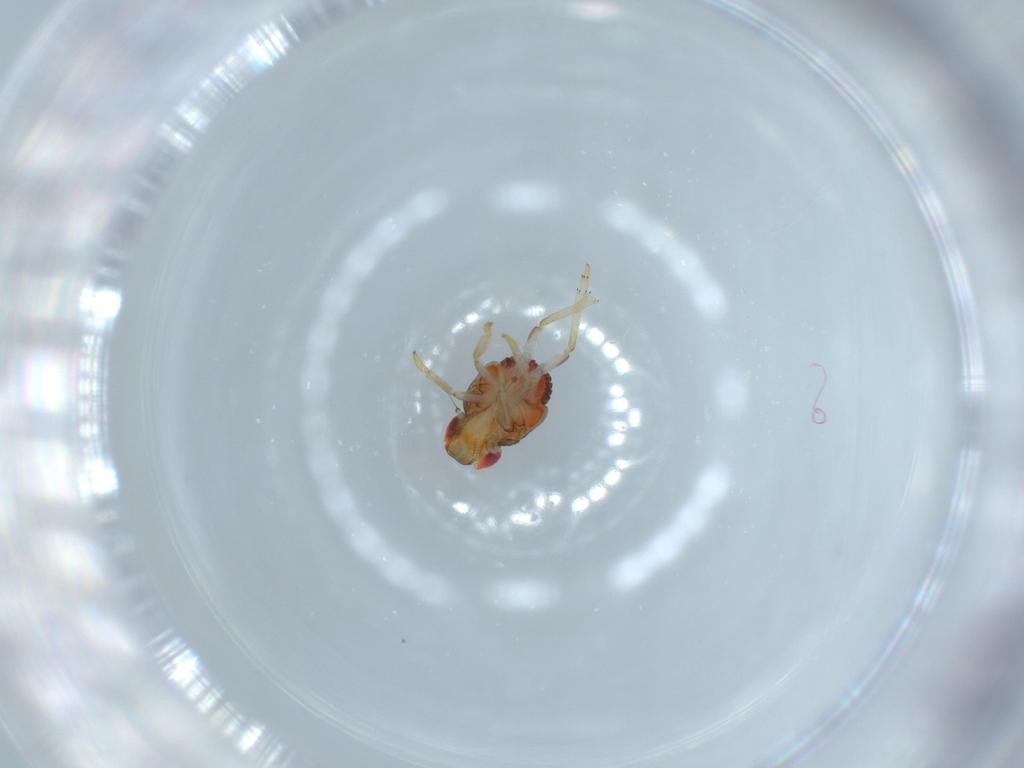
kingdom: Animalia
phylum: Arthropoda
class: Insecta
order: Hemiptera
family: Issidae
